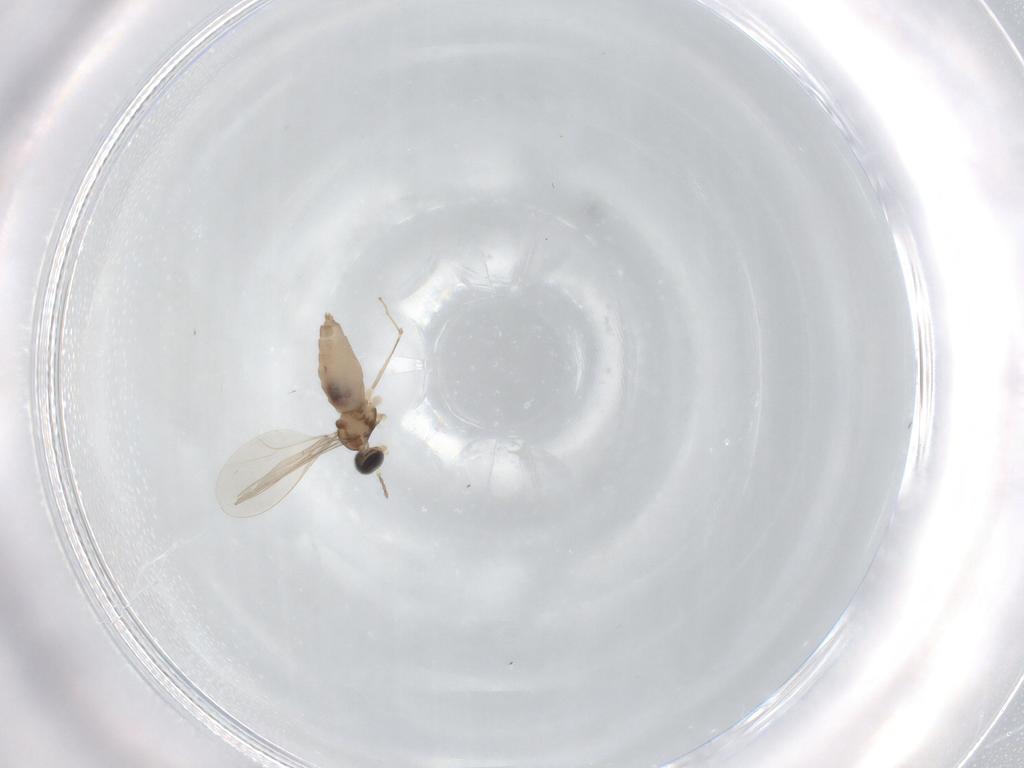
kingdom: Animalia
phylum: Arthropoda
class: Insecta
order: Diptera
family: Cecidomyiidae
